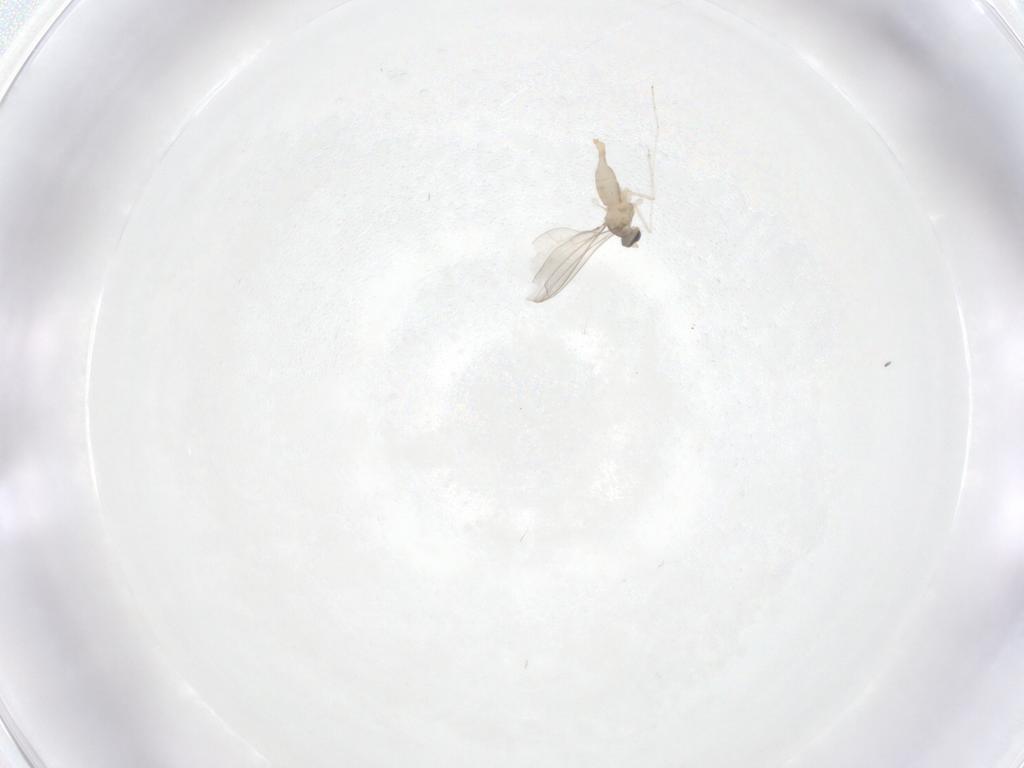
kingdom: Animalia
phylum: Arthropoda
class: Insecta
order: Diptera
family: Cecidomyiidae
